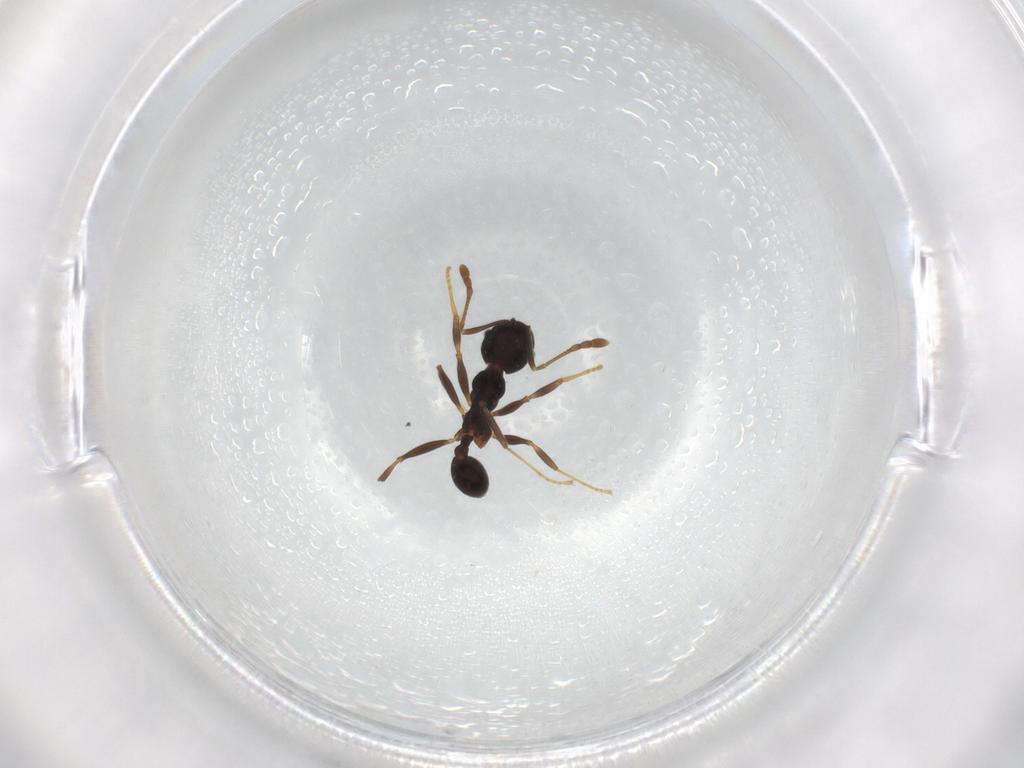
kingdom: Animalia
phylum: Arthropoda
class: Insecta
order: Hymenoptera
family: Formicidae
